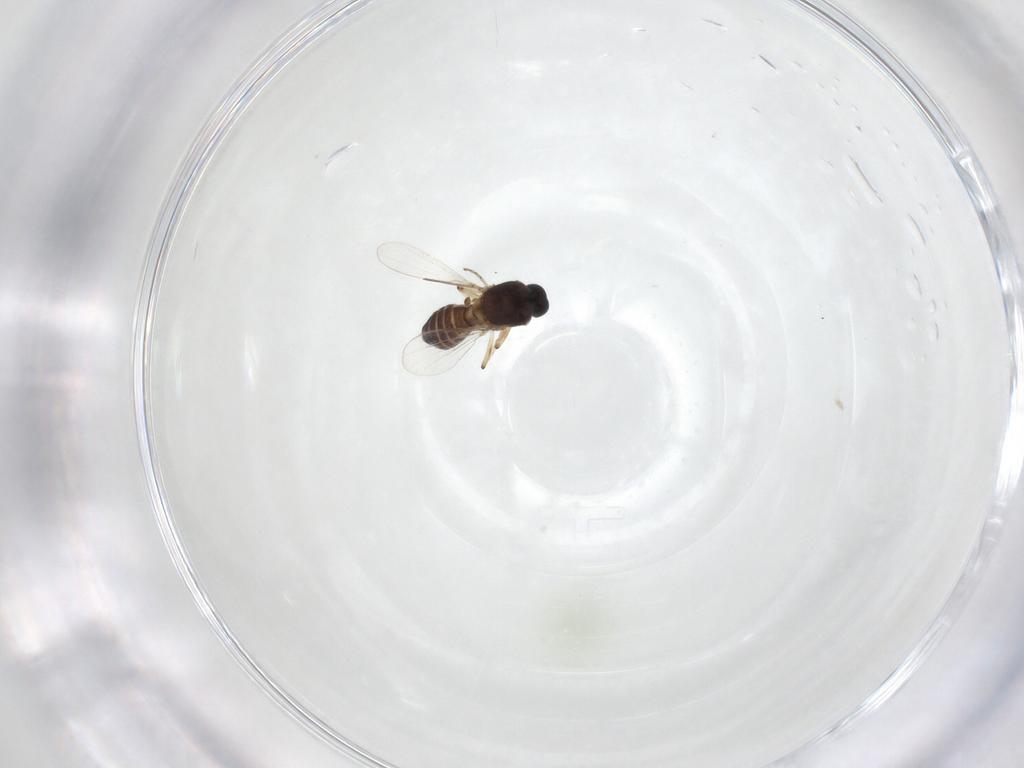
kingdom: Animalia
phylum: Arthropoda
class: Insecta
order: Diptera
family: Ceratopogonidae
